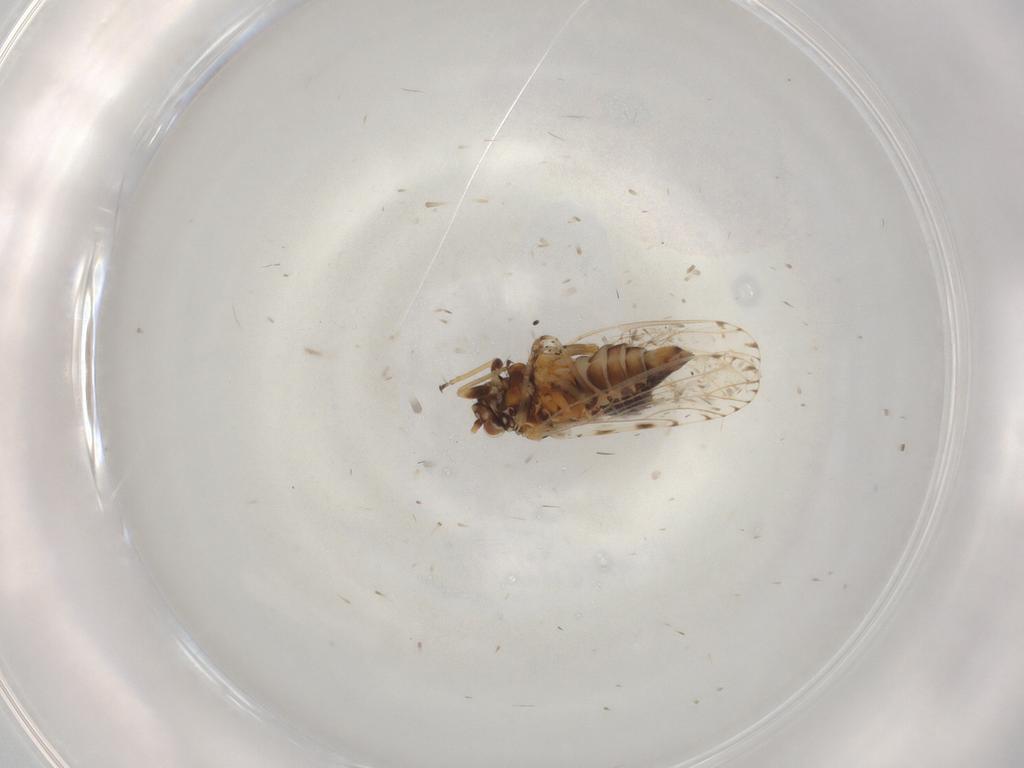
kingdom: Animalia
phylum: Arthropoda
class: Insecta
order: Hemiptera
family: Psyllidae
